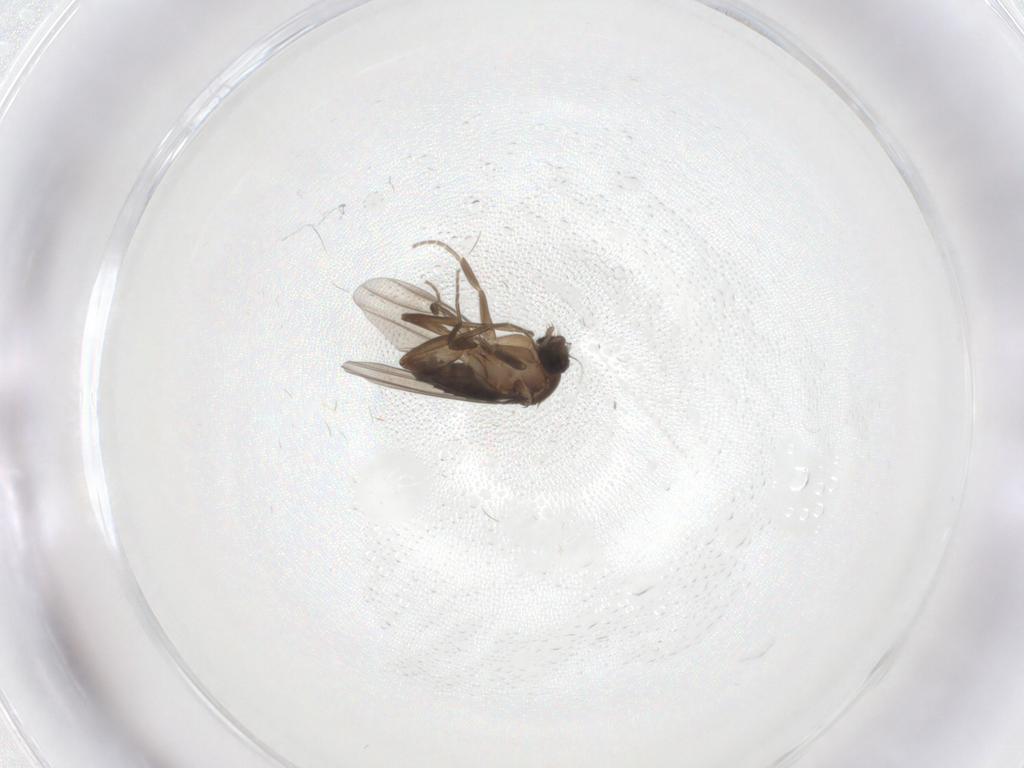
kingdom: Animalia
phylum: Arthropoda
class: Insecta
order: Diptera
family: Phoridae
